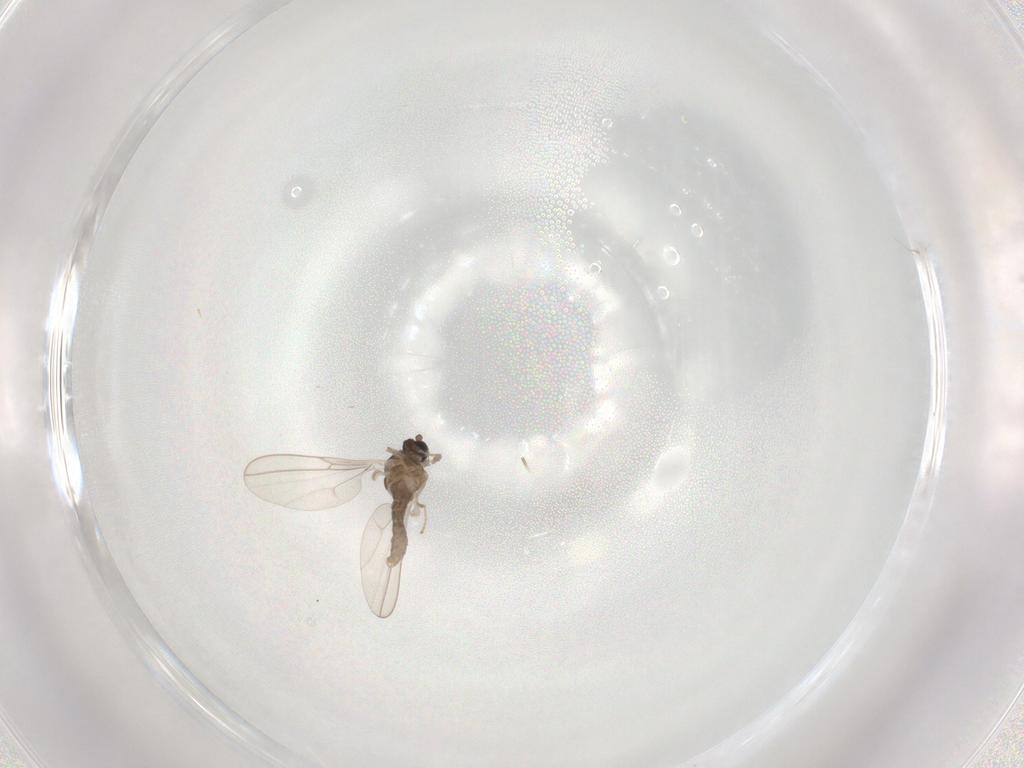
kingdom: Animalia
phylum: Arthropoda
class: Insecta
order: Diptera
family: Cecidomyiidae
